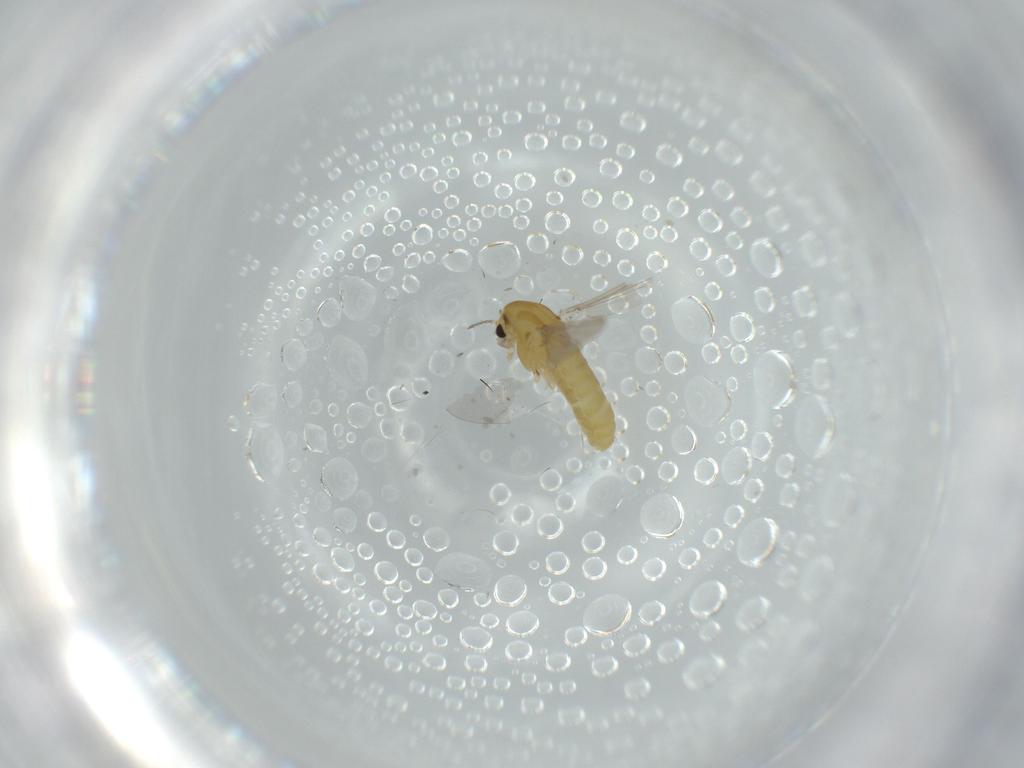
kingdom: Animalia
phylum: Arthropoda
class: Insecta
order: Diptera
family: Chironomidae
